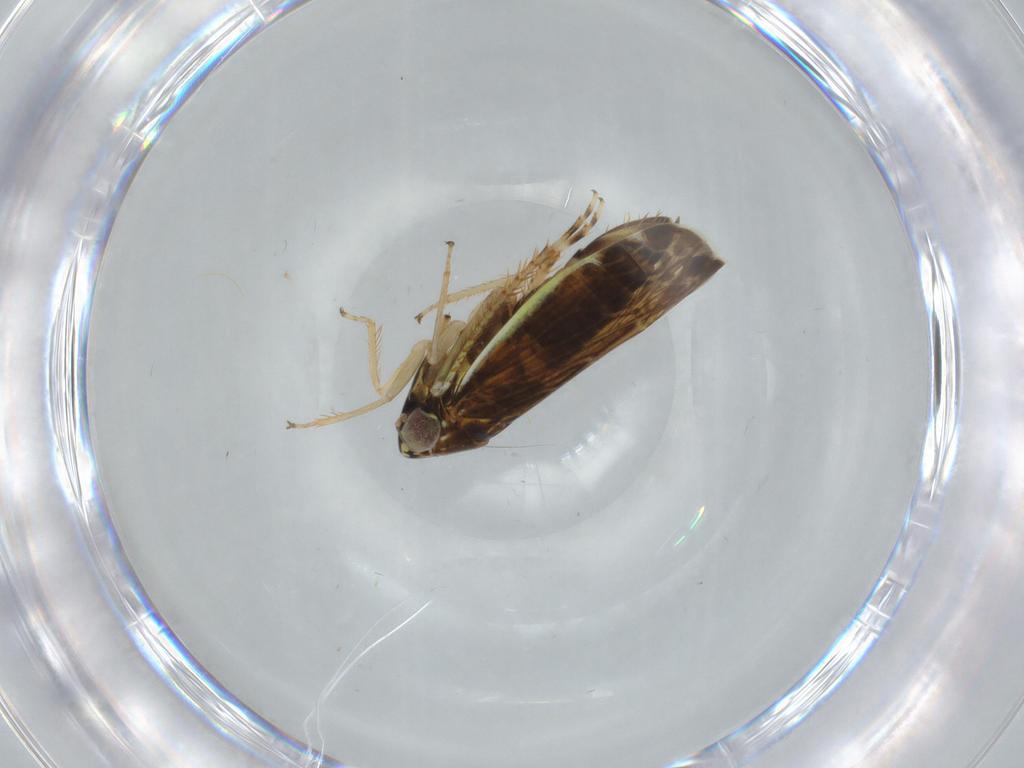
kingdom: Animalia
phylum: Arthropoda
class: Insecta
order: Hemiptera
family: Cicadellidae
